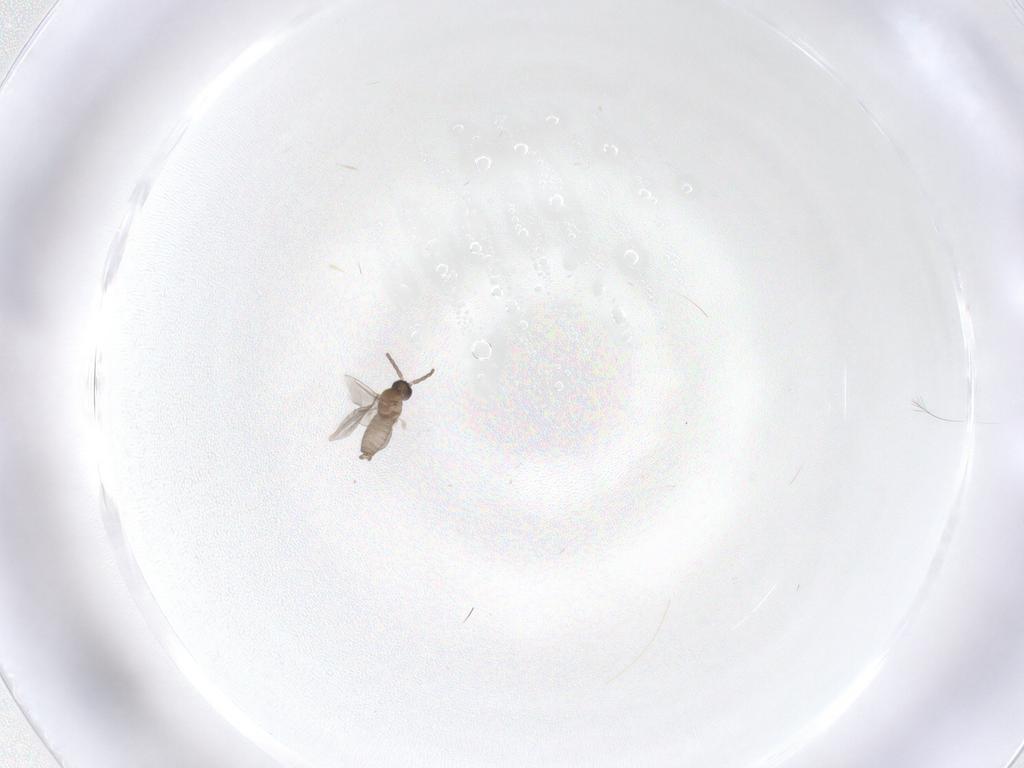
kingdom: Animalia
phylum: Arthropoda
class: Insecta
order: Diptera
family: Cecidomyiidae
